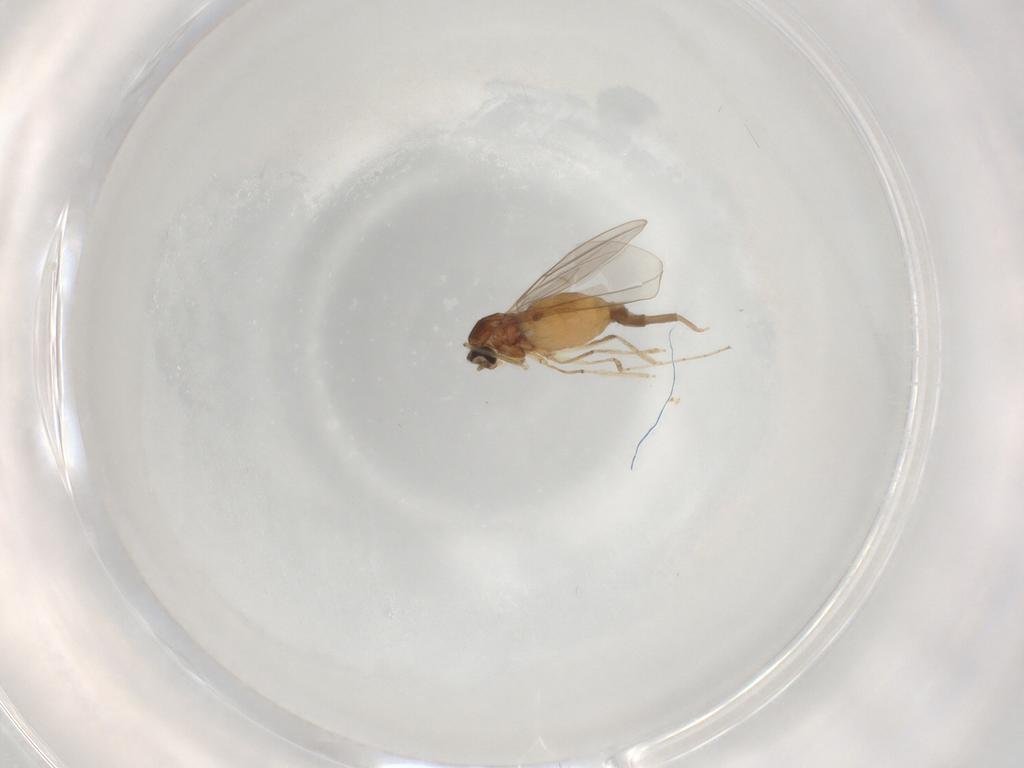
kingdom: Animalia
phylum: Arthropoda
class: Insecta
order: Diptera
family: Cecidomyiidae
